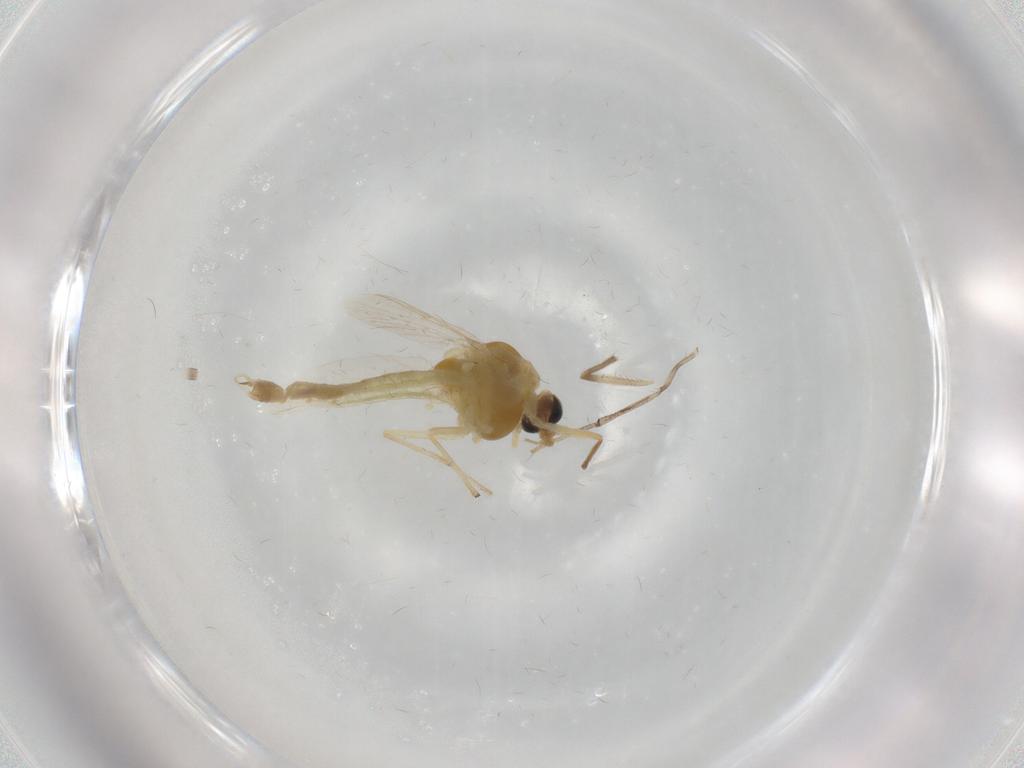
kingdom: Animalia
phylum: Arthropoda
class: Insecta
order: Diptera
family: Chironomidae
